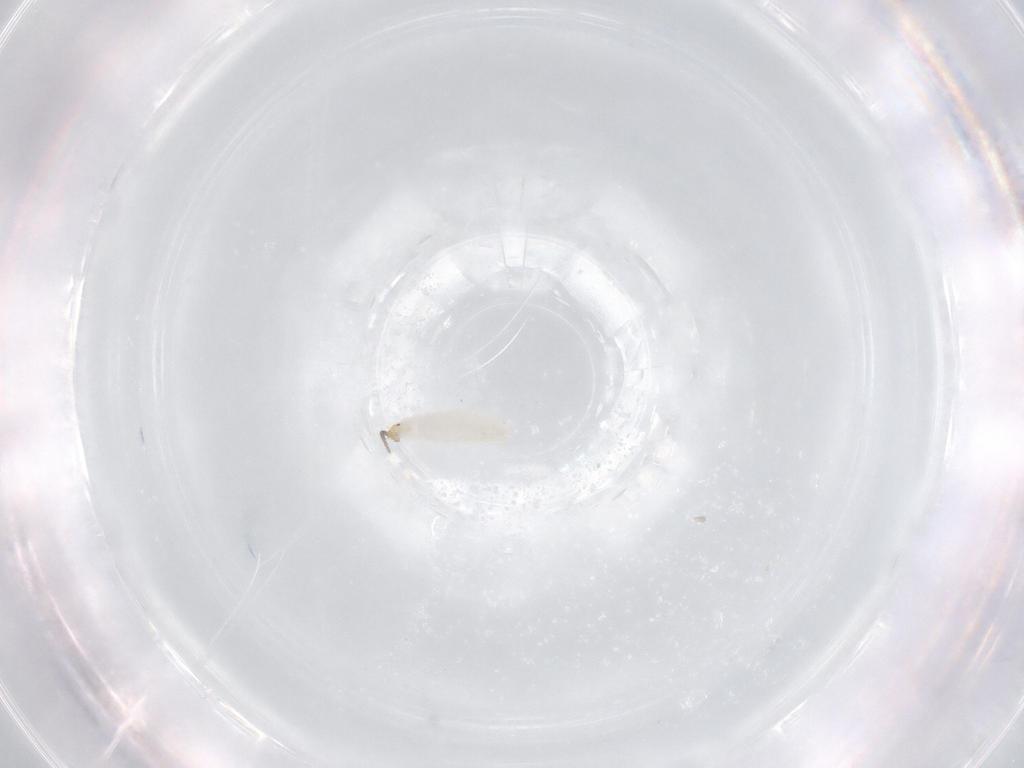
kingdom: Animalia
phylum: Arthropoda
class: Insecta
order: Diptera
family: Cecidomyiidae
